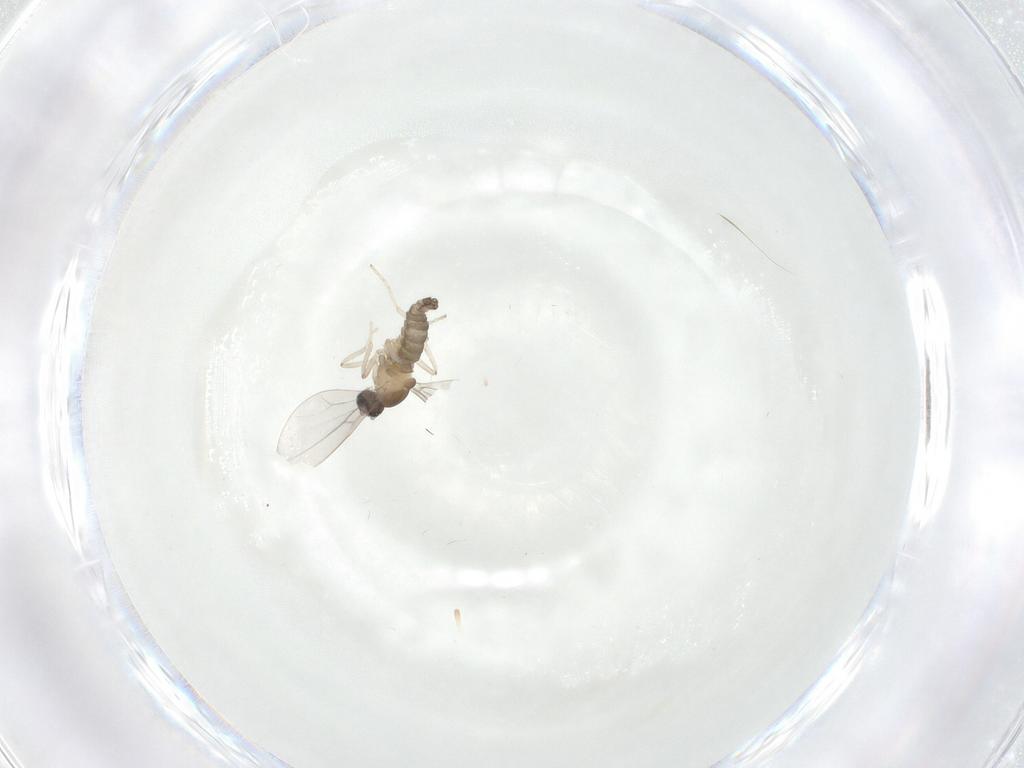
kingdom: Animalia
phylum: Arthropoda
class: Insecta
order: Diptera
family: Cecidomyiidae
